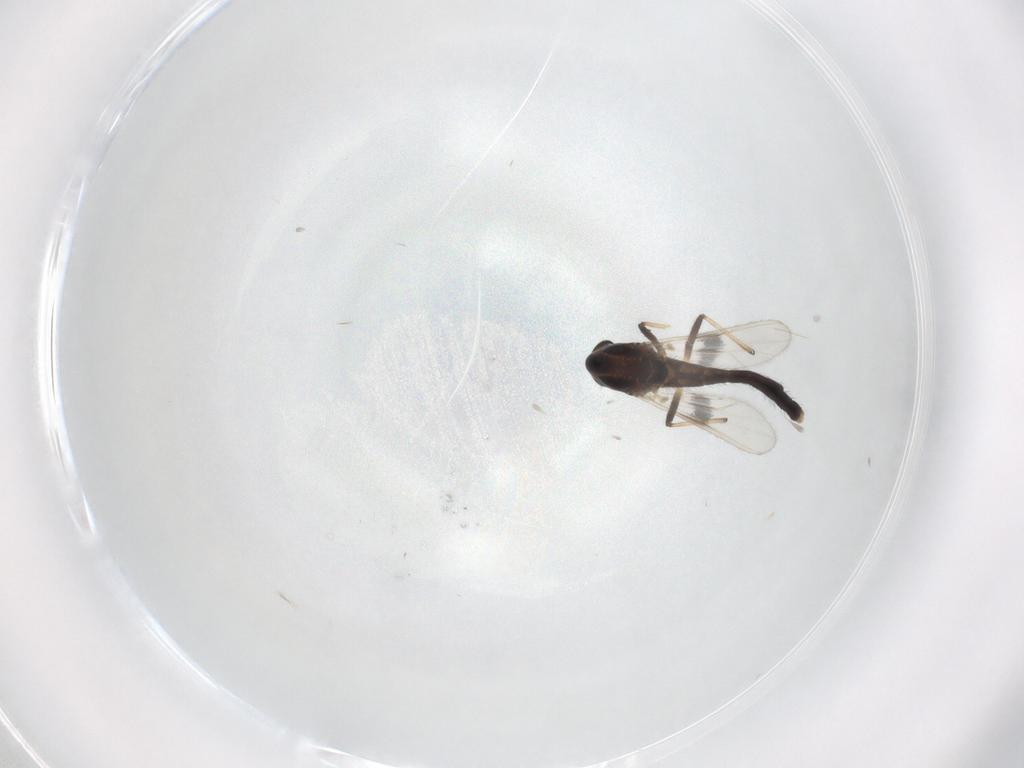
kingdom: Animalia
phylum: Arthropoda
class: Insecta
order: Diptera
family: Chironomidae
